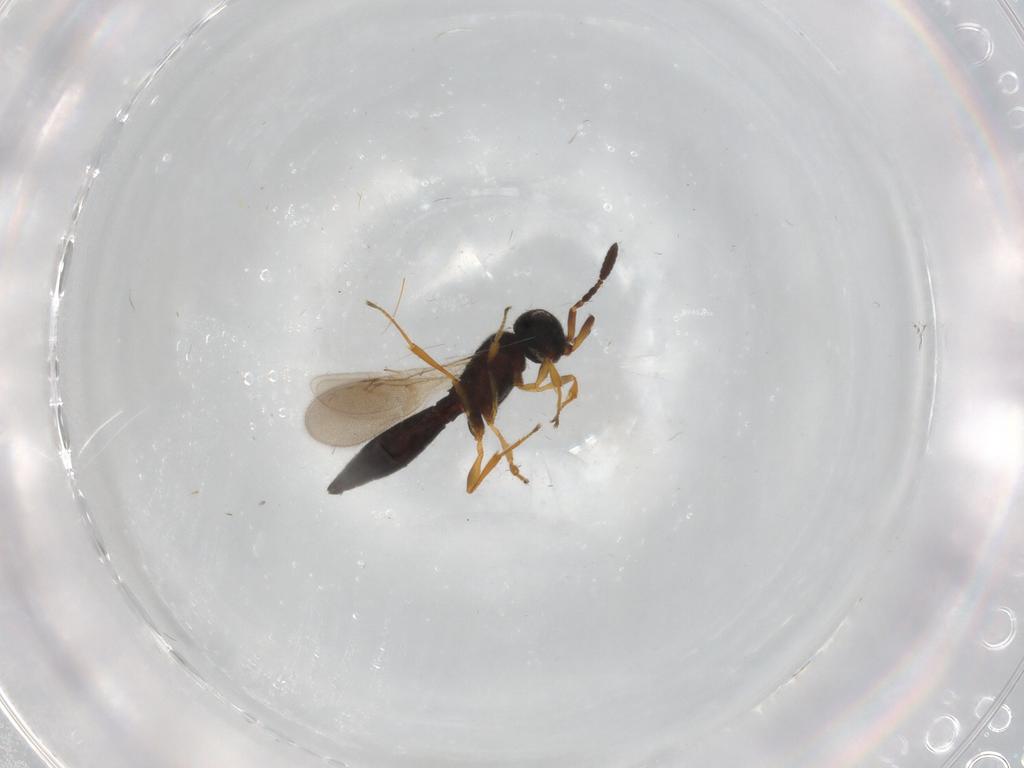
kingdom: Animalia
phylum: Arthropoda
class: Insecta
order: Hymenoptera
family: Scelionidae
